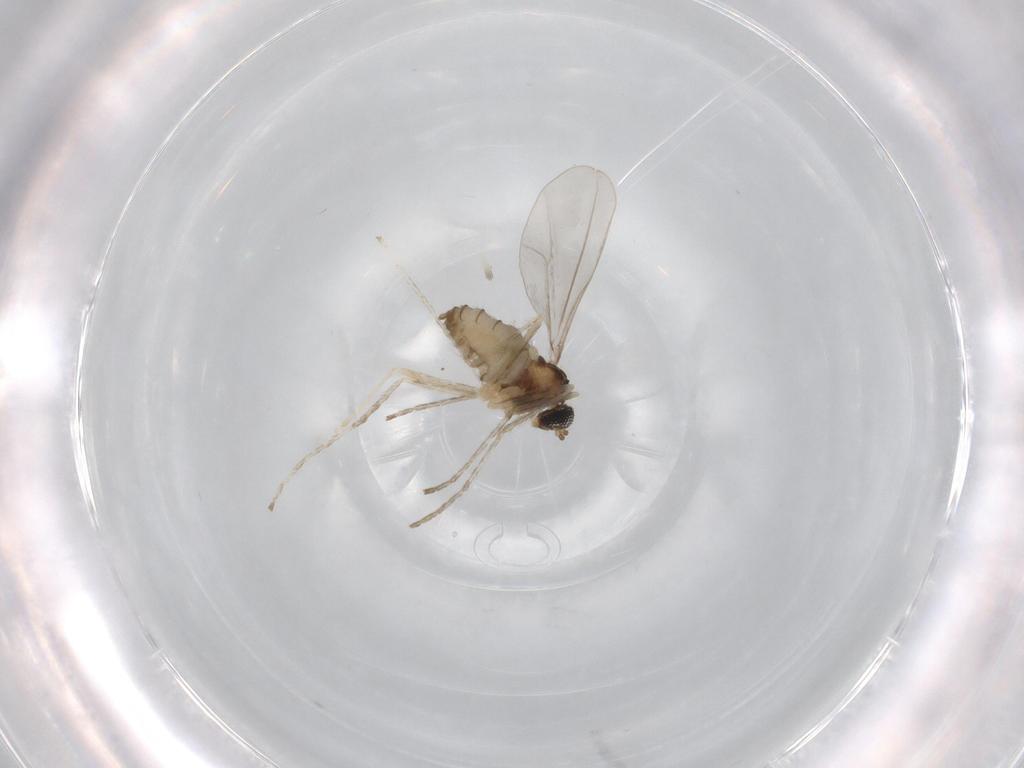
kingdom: Animalia
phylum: Arthropoda
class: Insecta
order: Diptera
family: Cecidomyiidae
